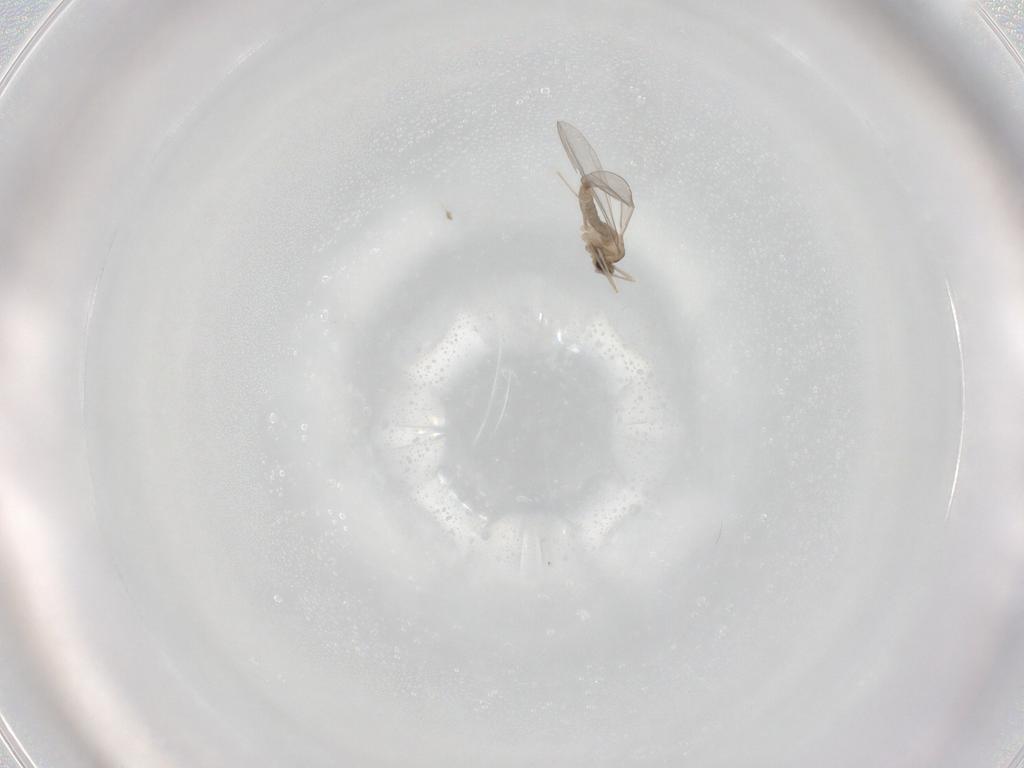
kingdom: Animalia
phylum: Arthropoda
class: Insecta
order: Diptera
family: Cecidomyiidae
